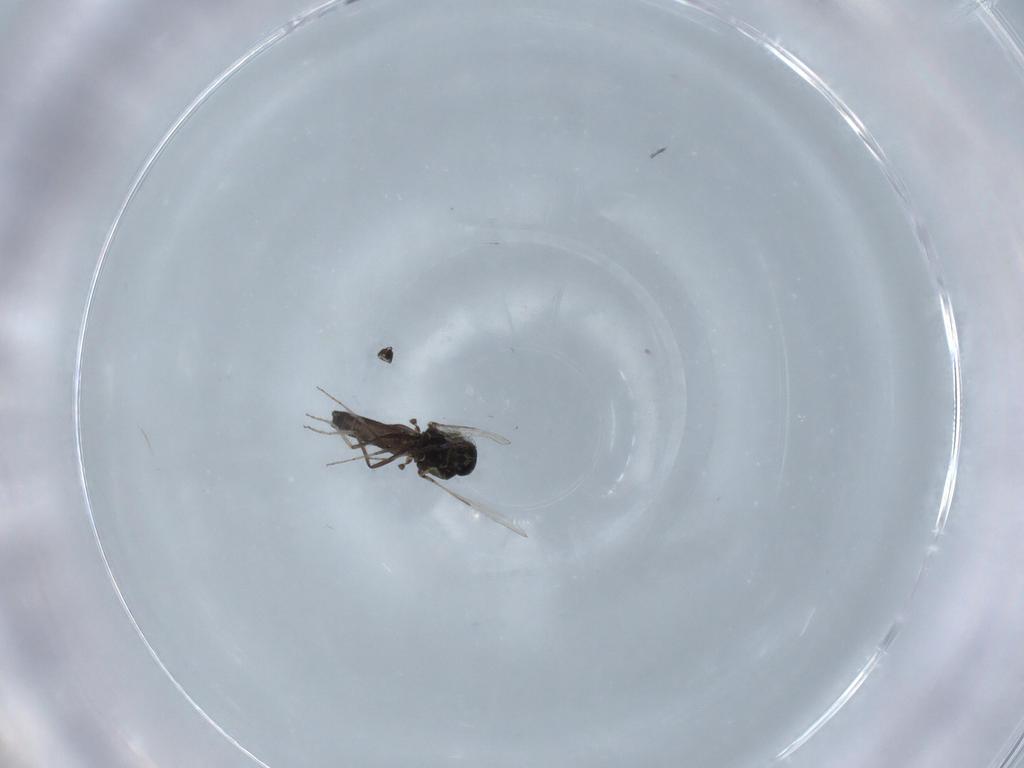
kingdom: Animalia
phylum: Arthropoda
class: Insecta
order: Diptera
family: Ceratopogonidae
